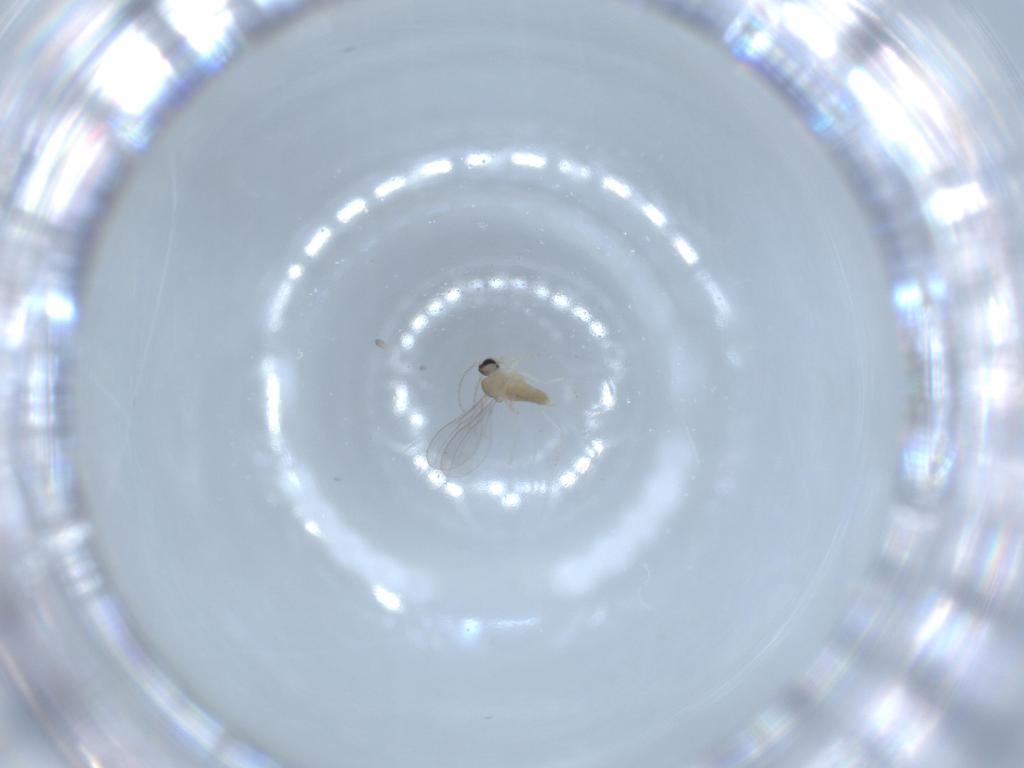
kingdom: Animalia
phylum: Arthropoda
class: Insecta
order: Diptera
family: Cecidomyiidae
